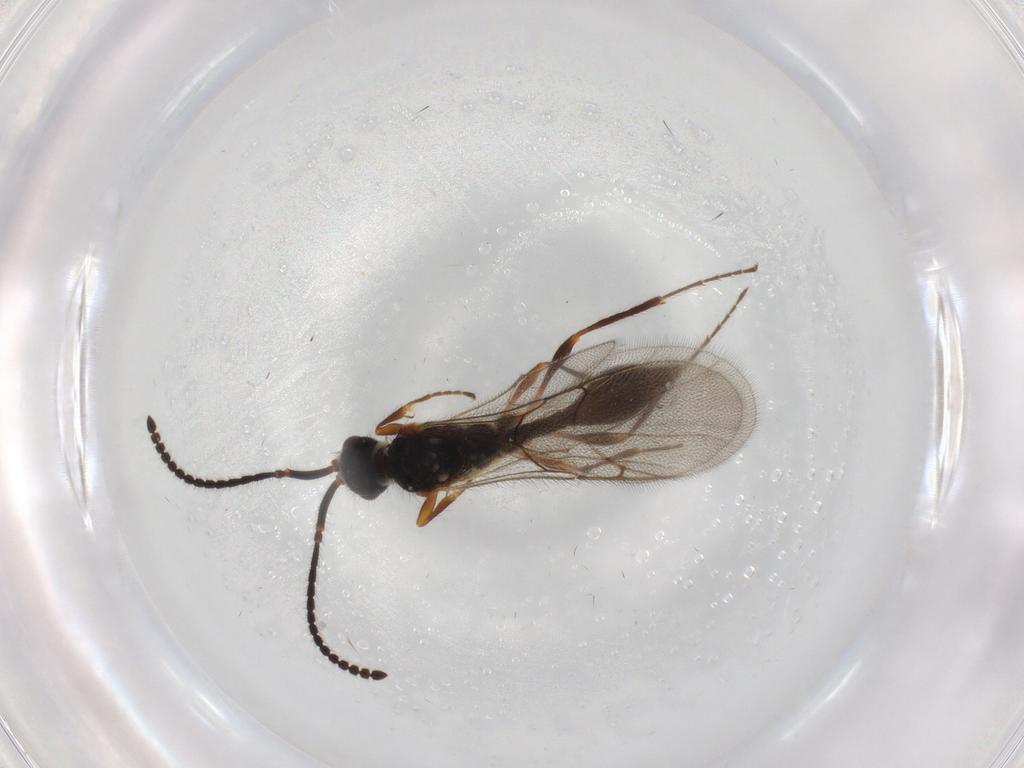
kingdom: Animalia
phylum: Arthropoda
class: Insecta
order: Hymenoptera
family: Diapriidae
